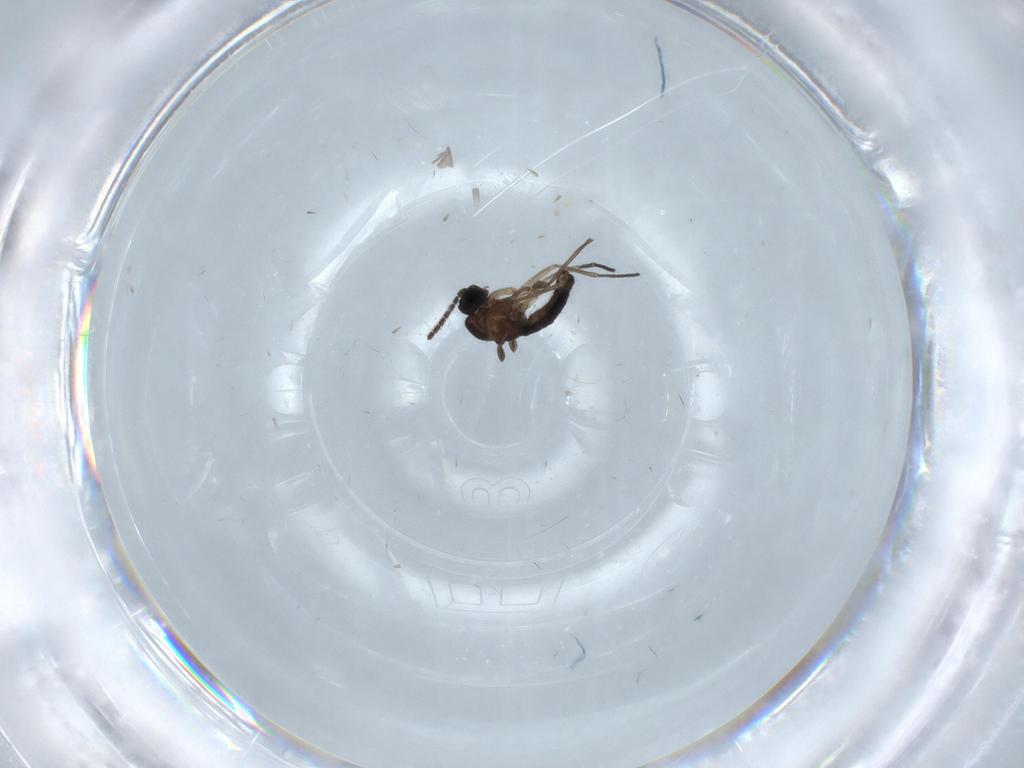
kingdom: Animalia
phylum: Arthropoda
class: Insecta
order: Diptera
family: Sciaridae
